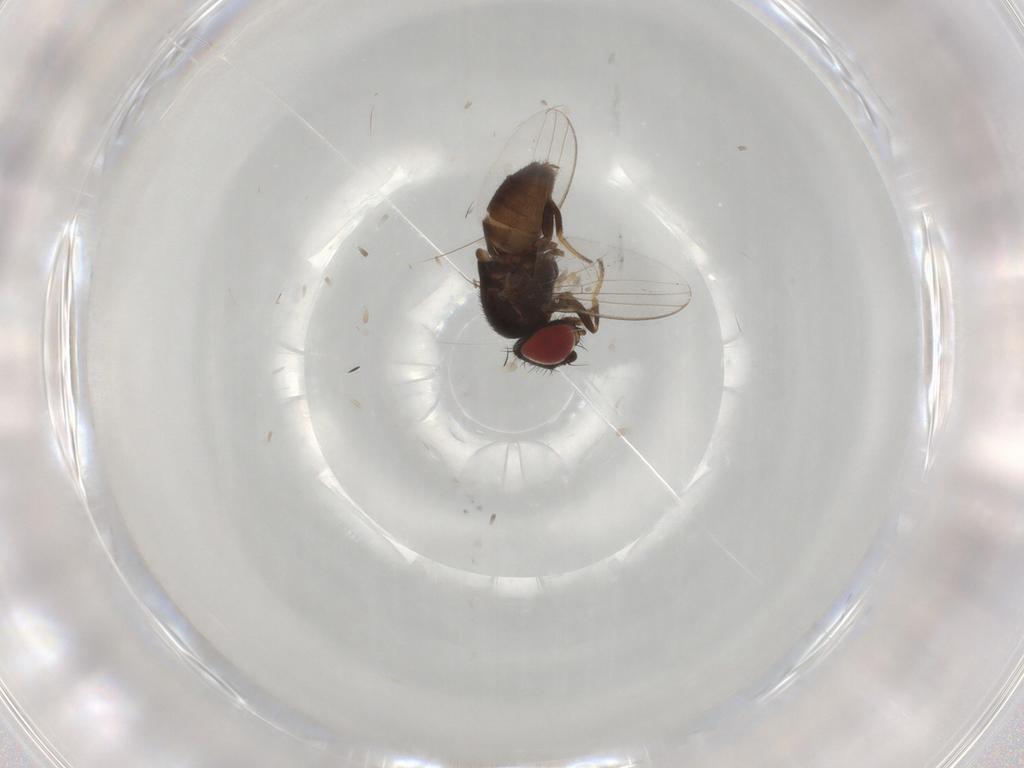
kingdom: Animalia
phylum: Arthropoda
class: Insecta
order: Diptera
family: Milichiidae
